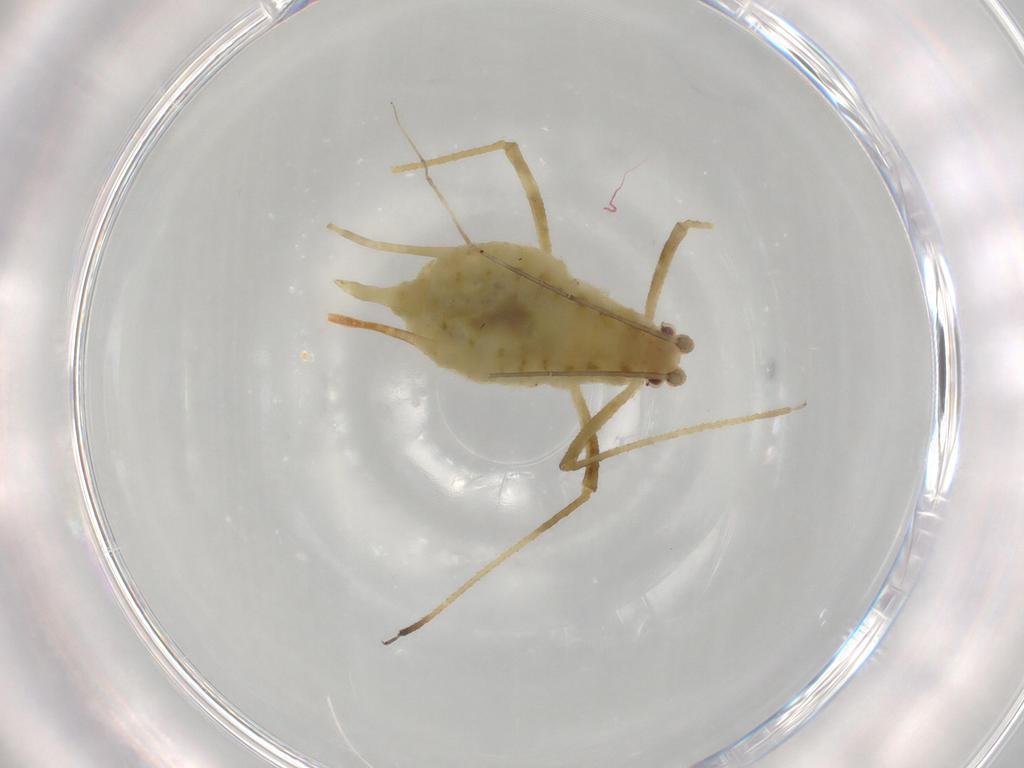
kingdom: Animalia
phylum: Arthropoda
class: Insecta
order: Hemiptera
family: Aphididae
